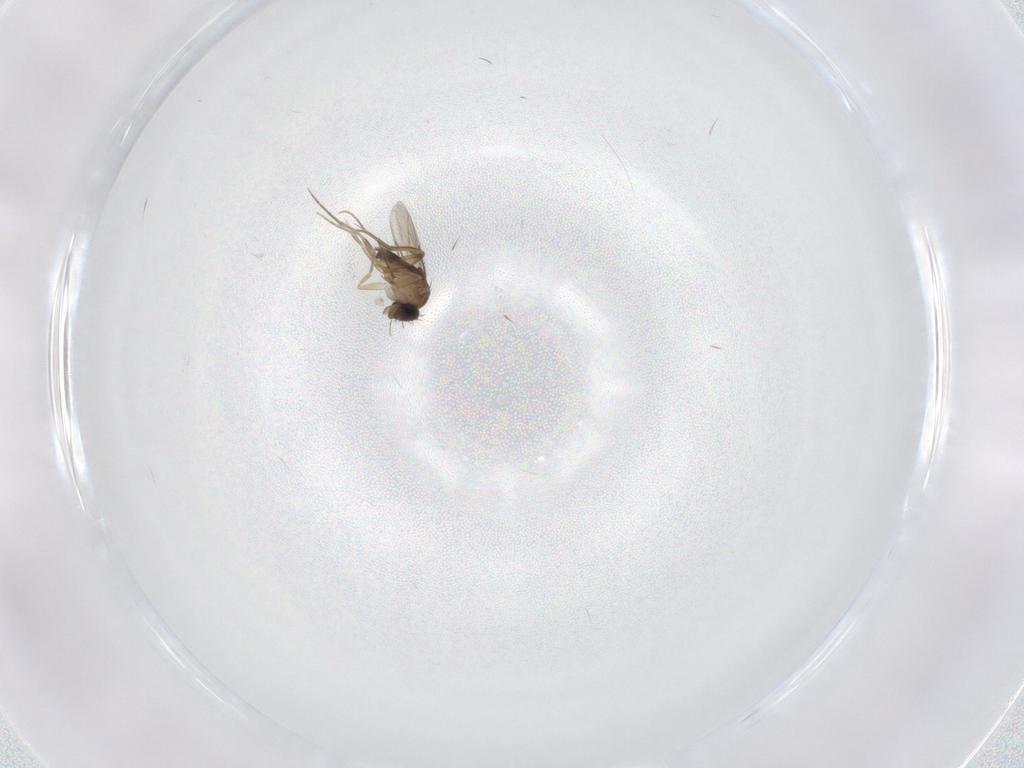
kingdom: Animalia
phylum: Arthropoda
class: Insecta
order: Diptera
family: Phoridae
